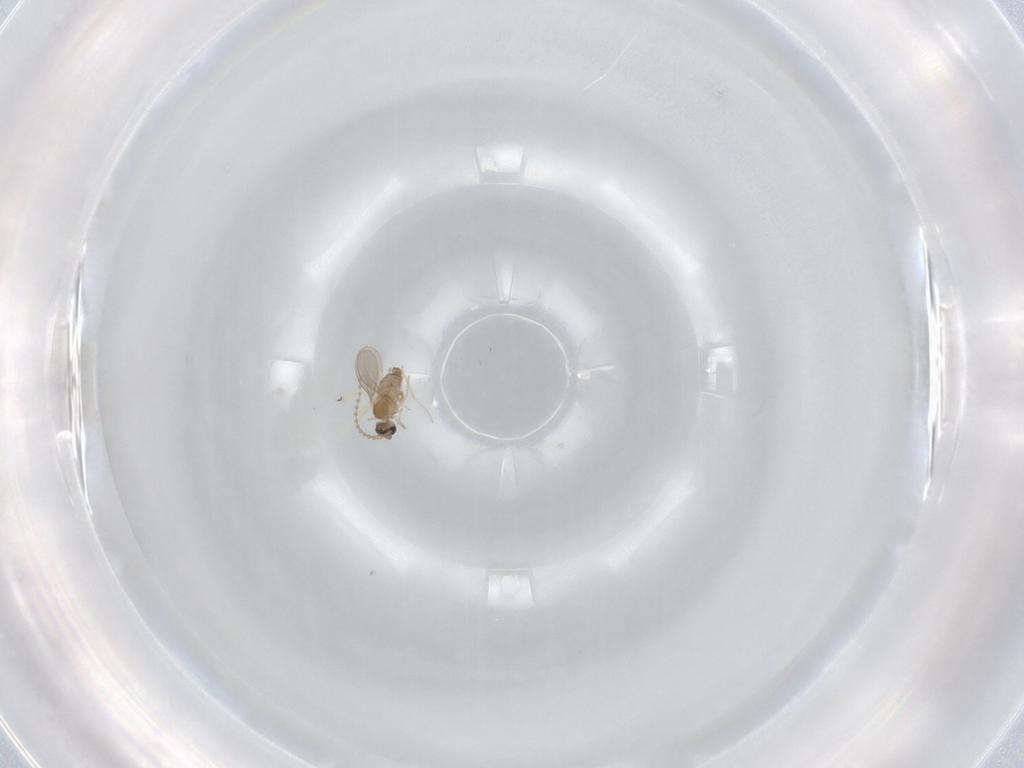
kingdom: Animalia
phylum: Arthropoda
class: Insecta
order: Diptera
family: Cecidomyiidae
